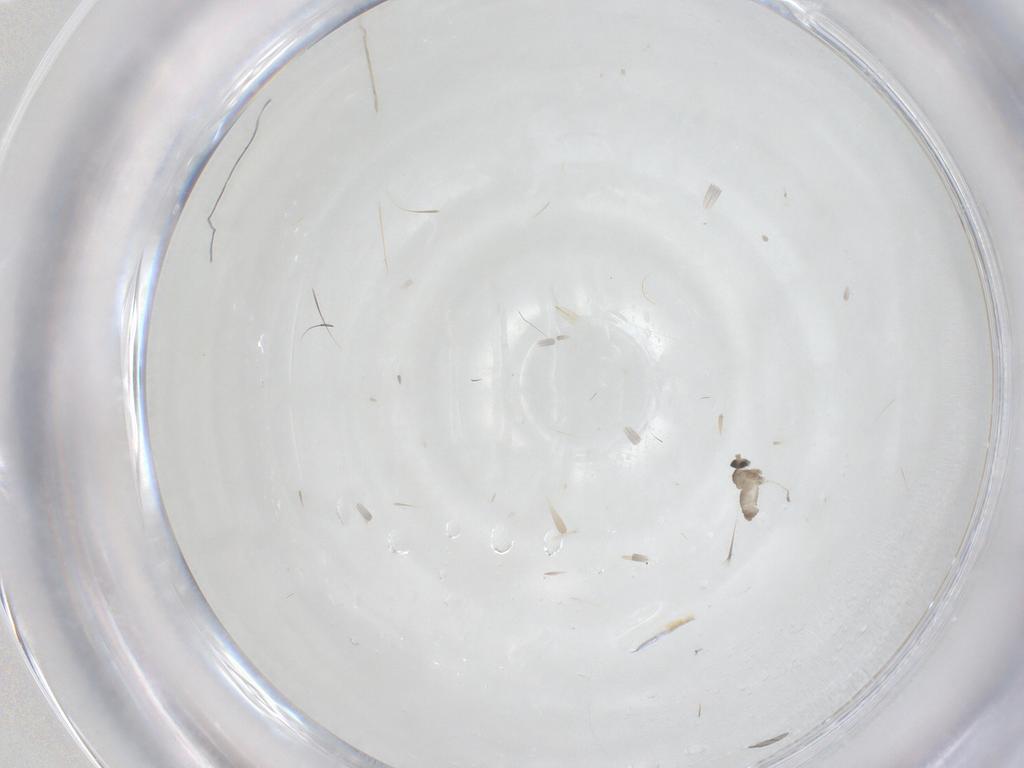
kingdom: Animalia
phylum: Arthropoda
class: Insecta
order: Diptera
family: Cecidomyiidae
